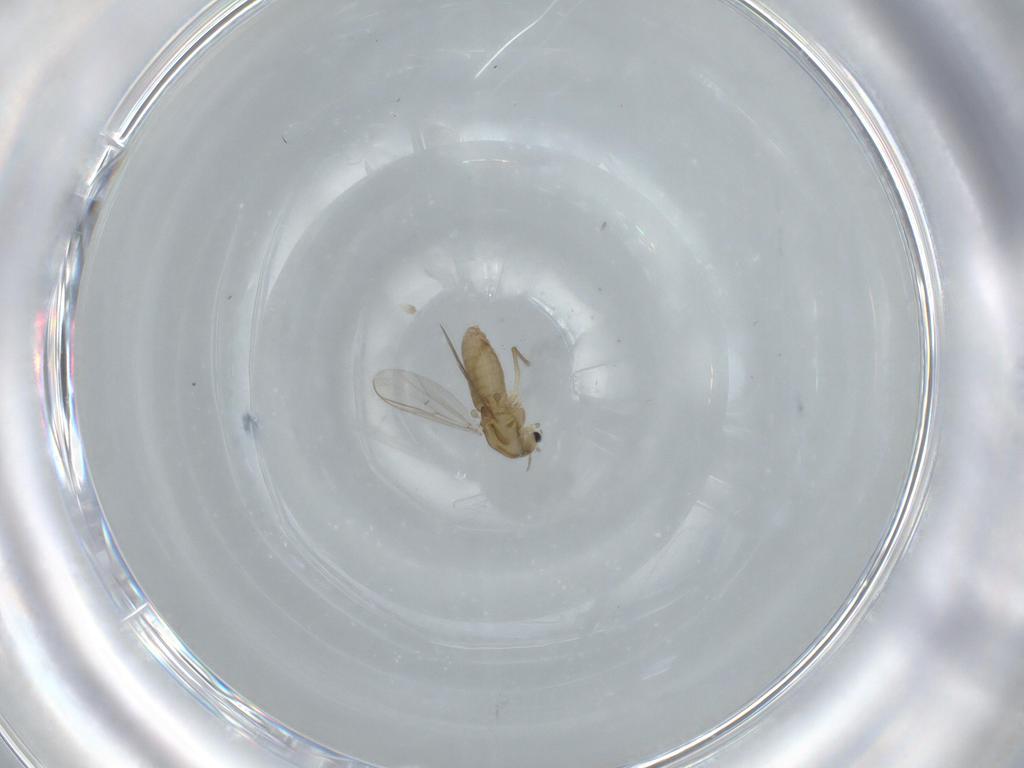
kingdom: Animalia
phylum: Arthropoda
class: Insecta
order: Diptera
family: Chironomidae
